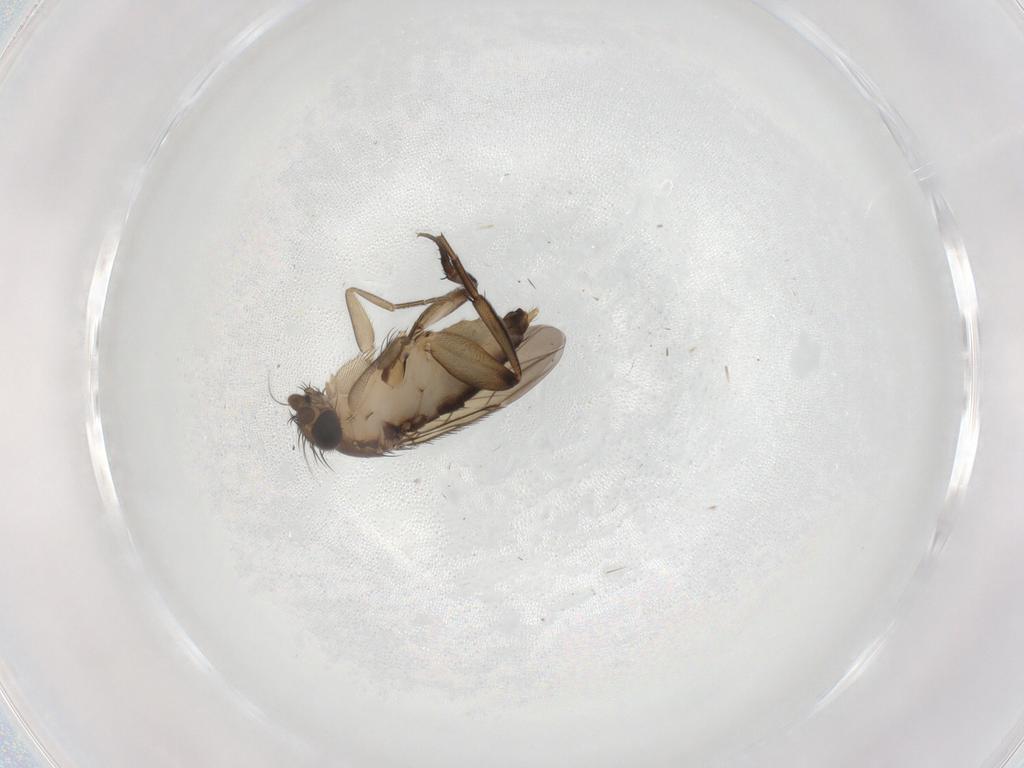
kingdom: Animalia
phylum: Arthropoda
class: Insecta
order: Diptera
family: Phoridae
